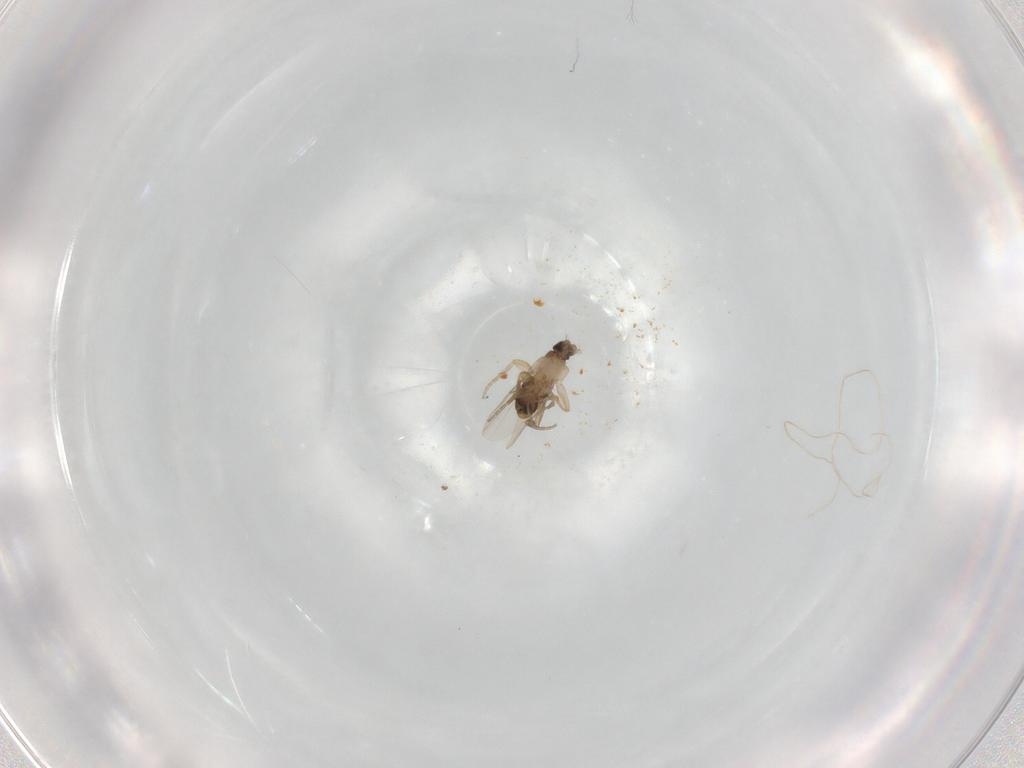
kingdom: Animalia
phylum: Arthropoda
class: Insecta
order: Diptera
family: Phoridae
